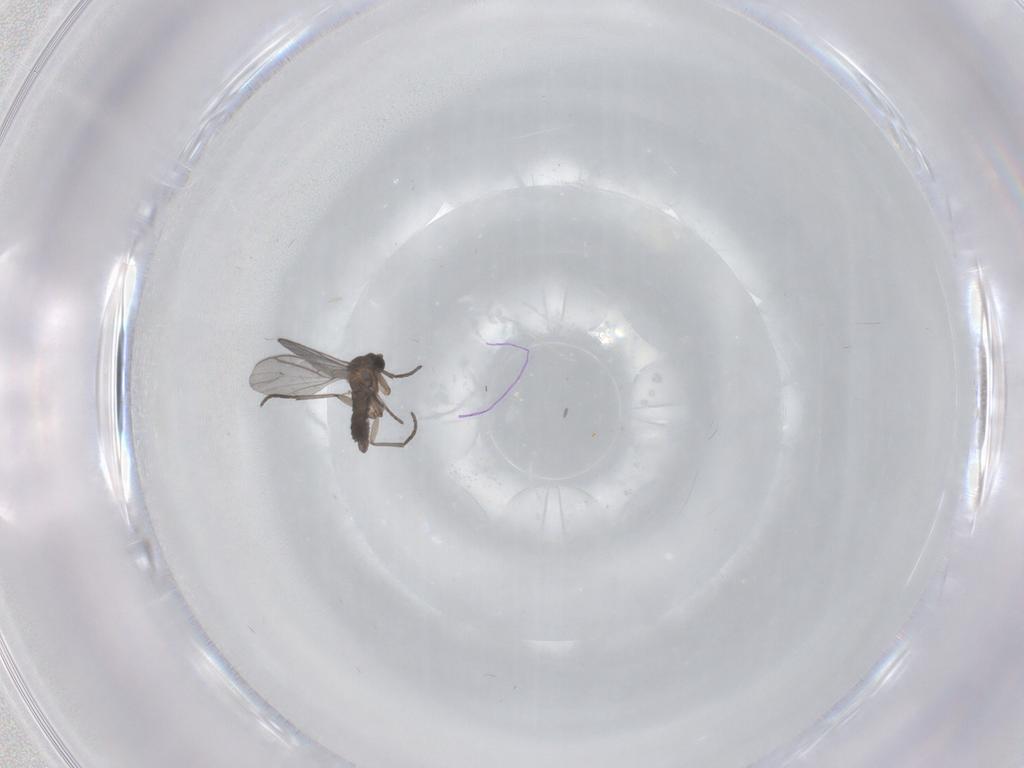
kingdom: Animalia
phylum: Arthropoda
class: Insecta
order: Diptera
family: Sciaridae
